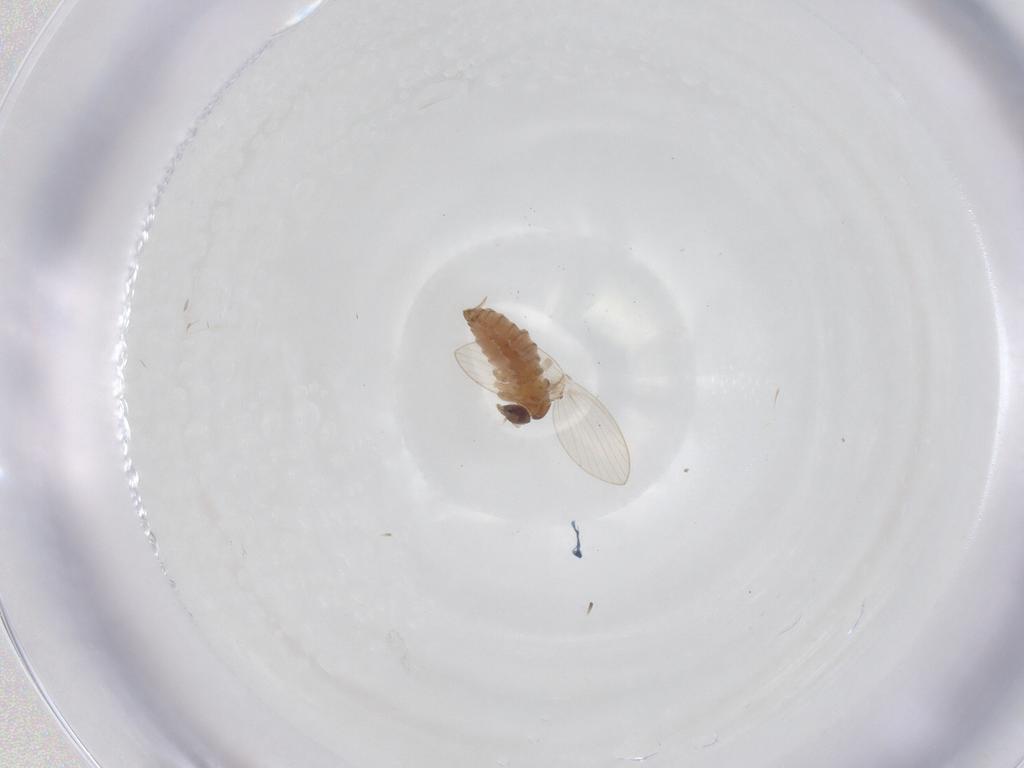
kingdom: Animalia
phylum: Arthropoda
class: Insecta
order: Diptera
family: Psychodidae
